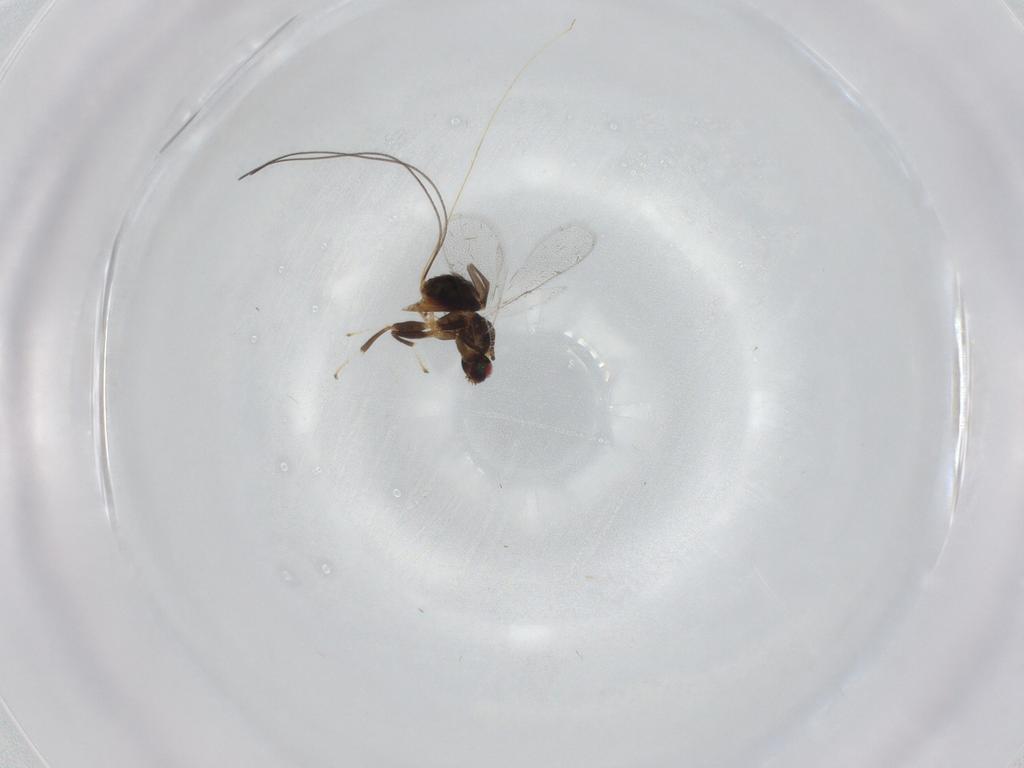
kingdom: Animalia
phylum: Arthropoda
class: Insecta
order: Hymenoptera
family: Torymidae
